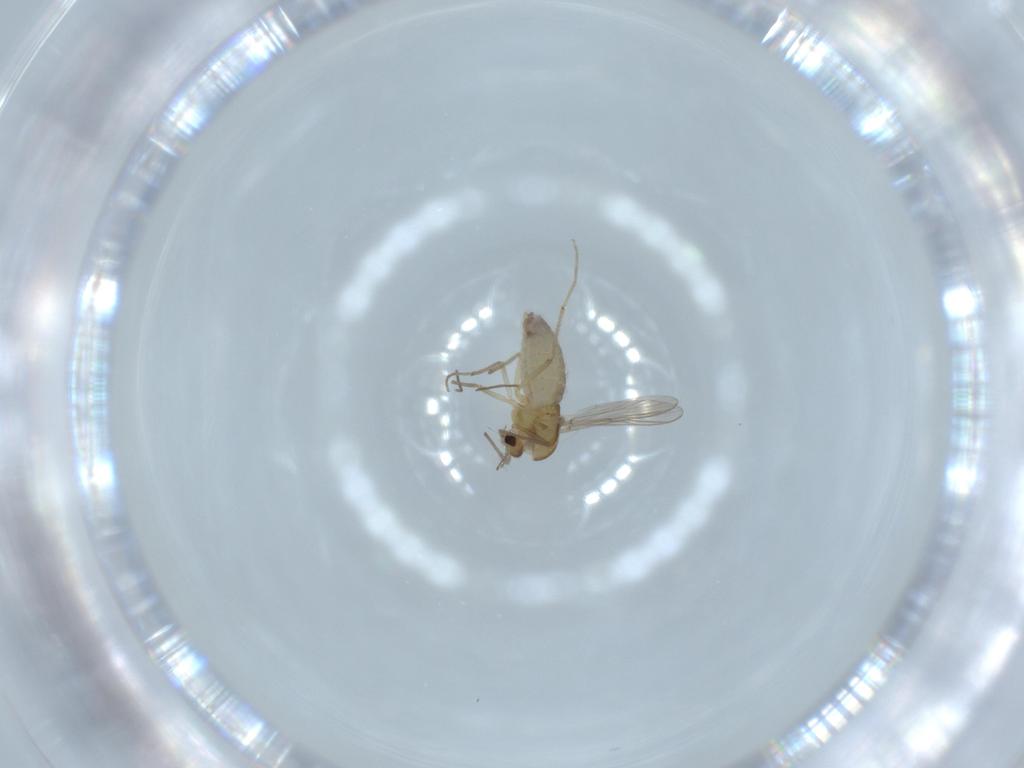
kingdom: Animalia
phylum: Arthropoda
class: Insecta
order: Diptera
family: Chironomidae
